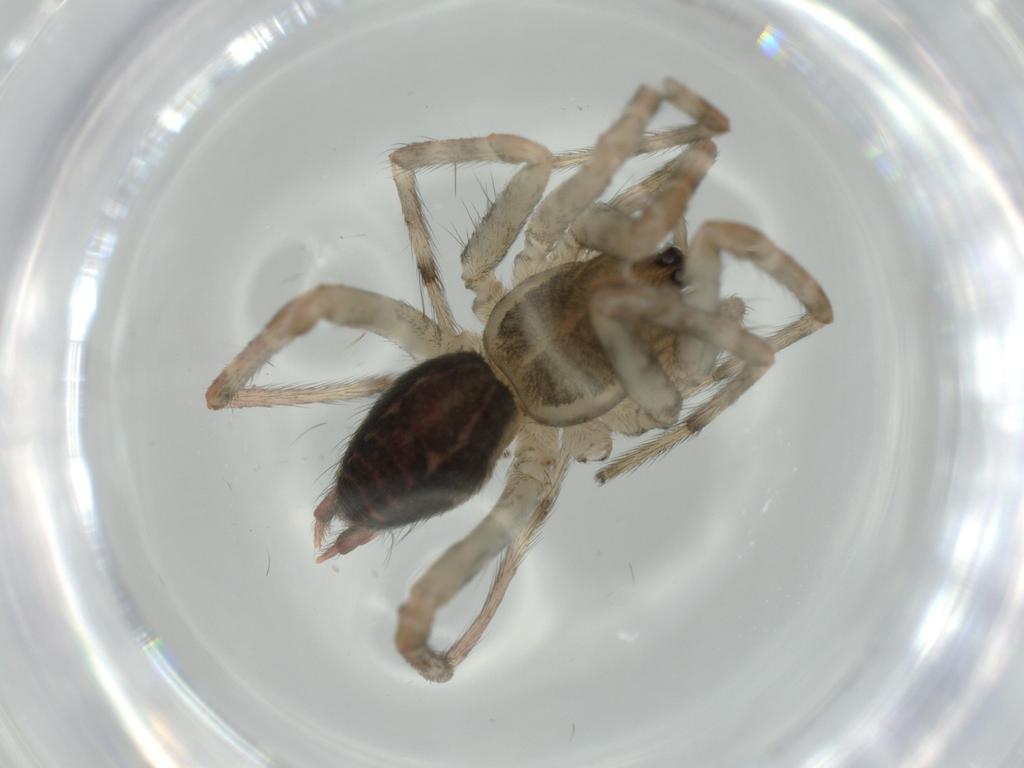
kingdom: Animalia
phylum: Arthropoda
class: Arachnida
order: Araneae
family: Agelenidae
